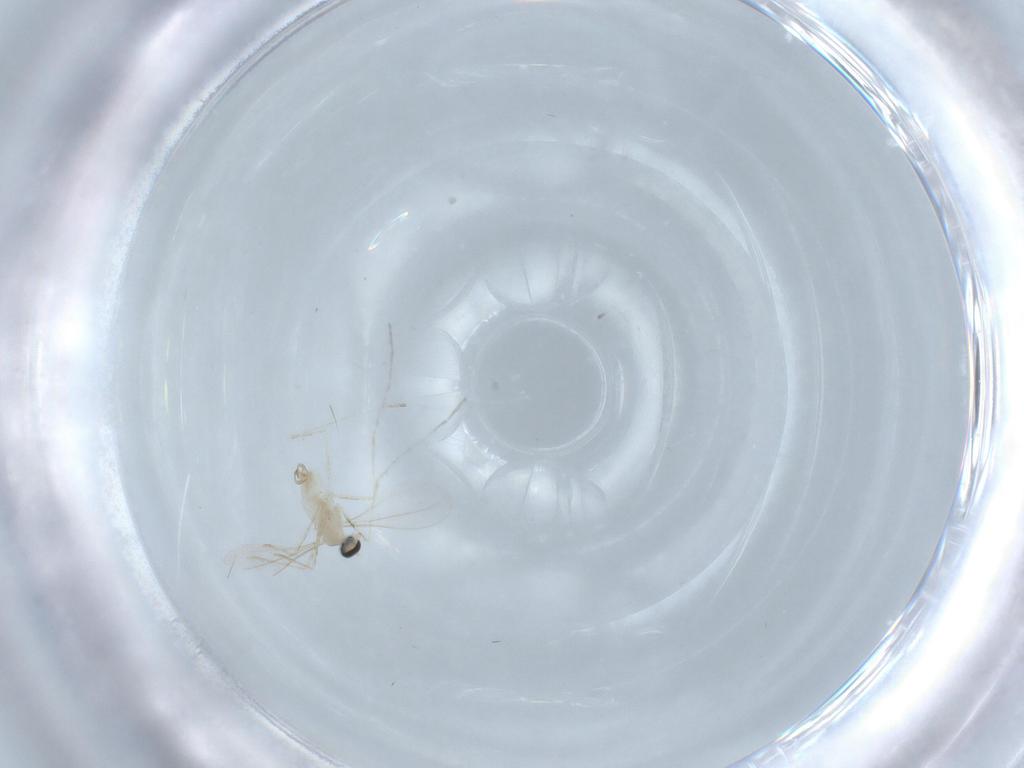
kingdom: Animalia
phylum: Arthropoda
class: Insecta
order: Diptera
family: Cecidomyiidae
